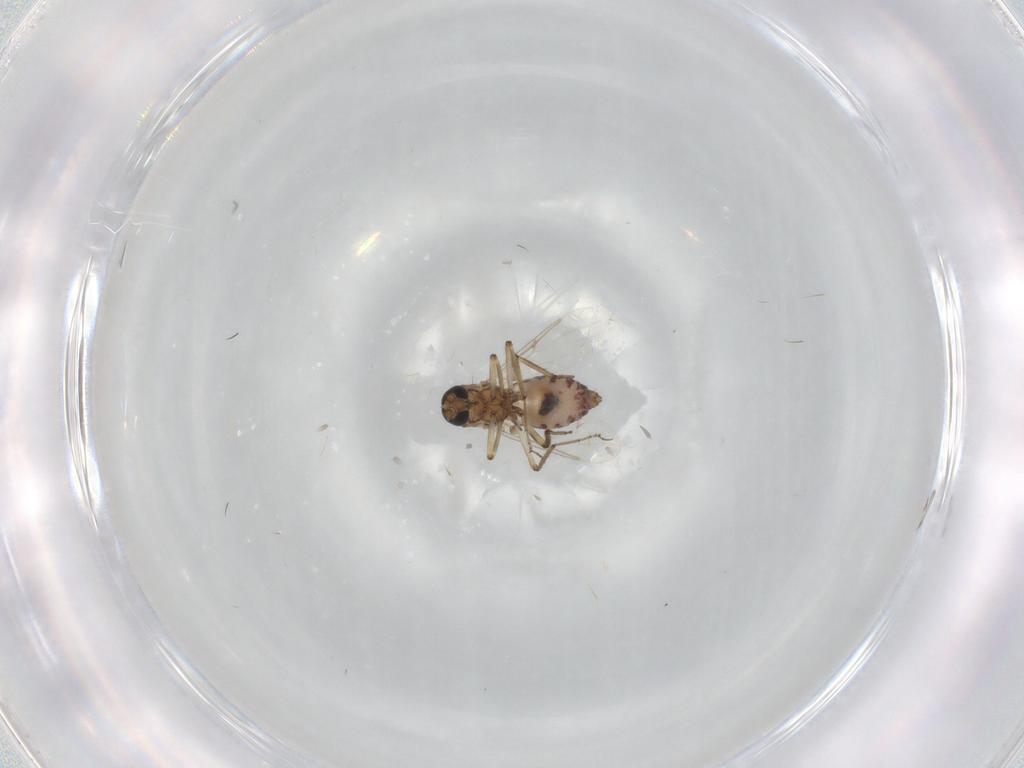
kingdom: Animalia
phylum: Arthropoda
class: Insecta
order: Diptera
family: Ceratopogonidae
